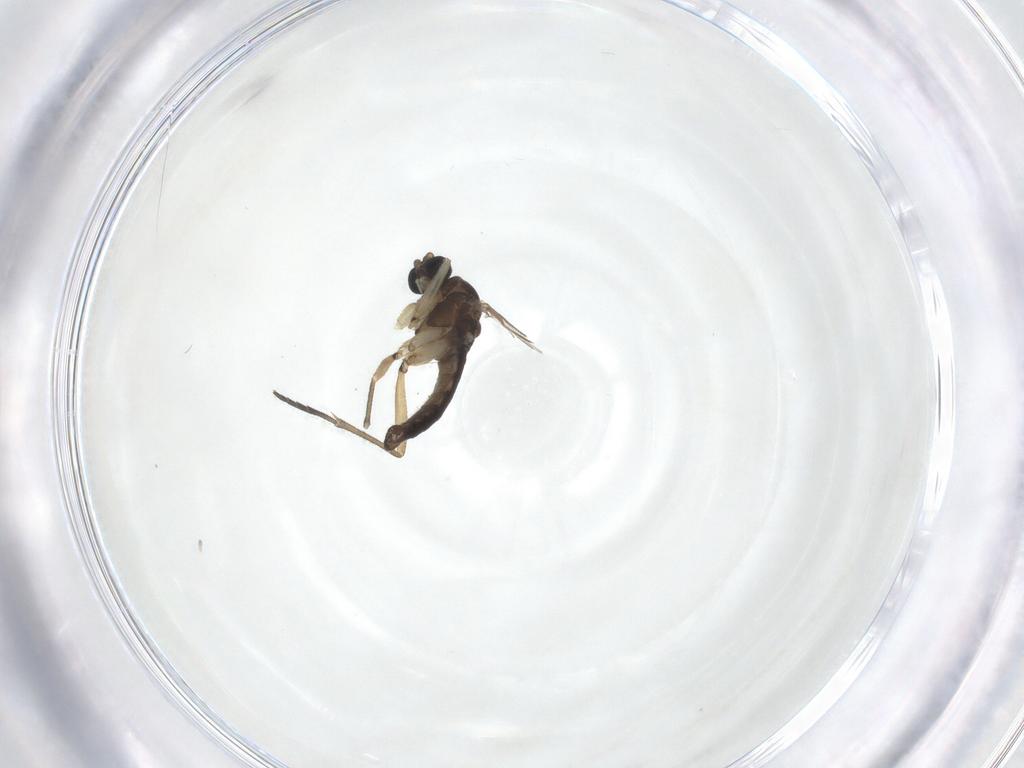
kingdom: Animalia
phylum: Arthropoda
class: Insecta
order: Diptera
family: Sciaridae
